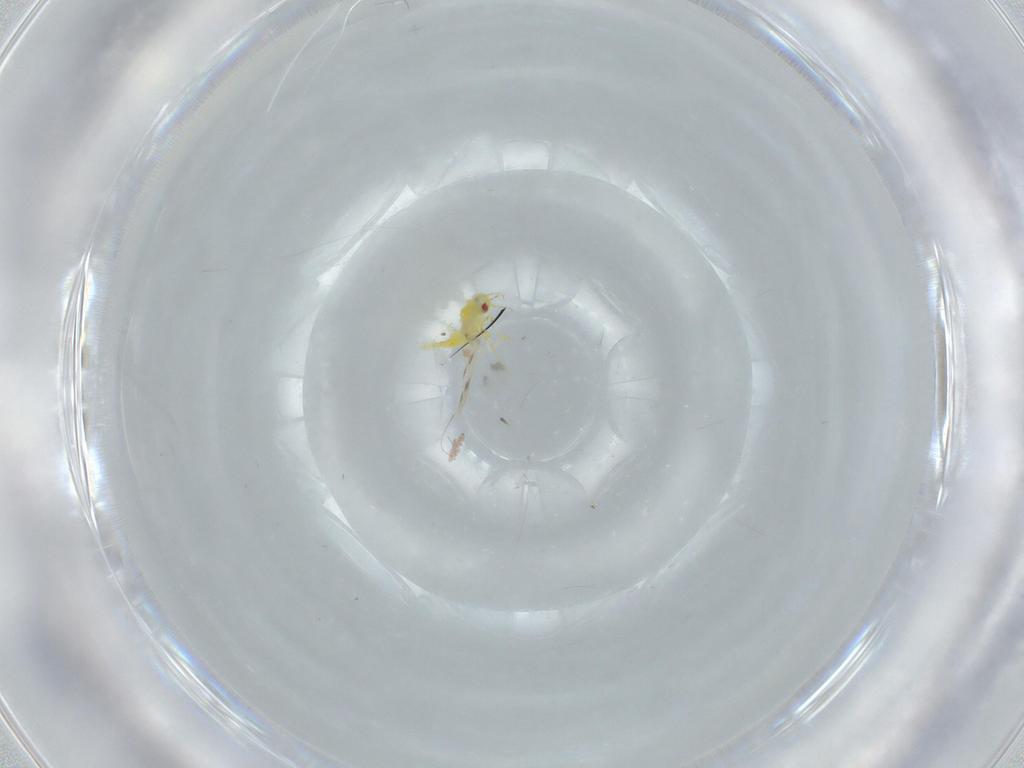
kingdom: Animalia
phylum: Arthropoda
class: Insecta
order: Hemiptera
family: Aleyrodidae
